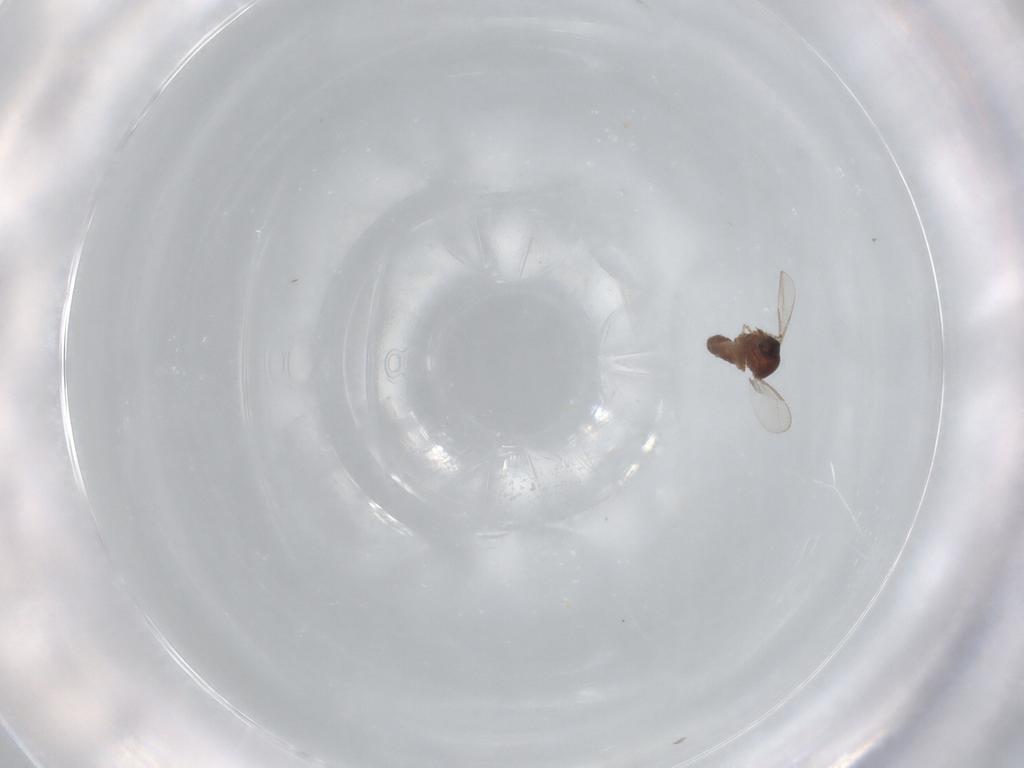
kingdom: Animalia
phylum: Arthropoda
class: Insecta
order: Diptera
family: Ceratopogonidae
